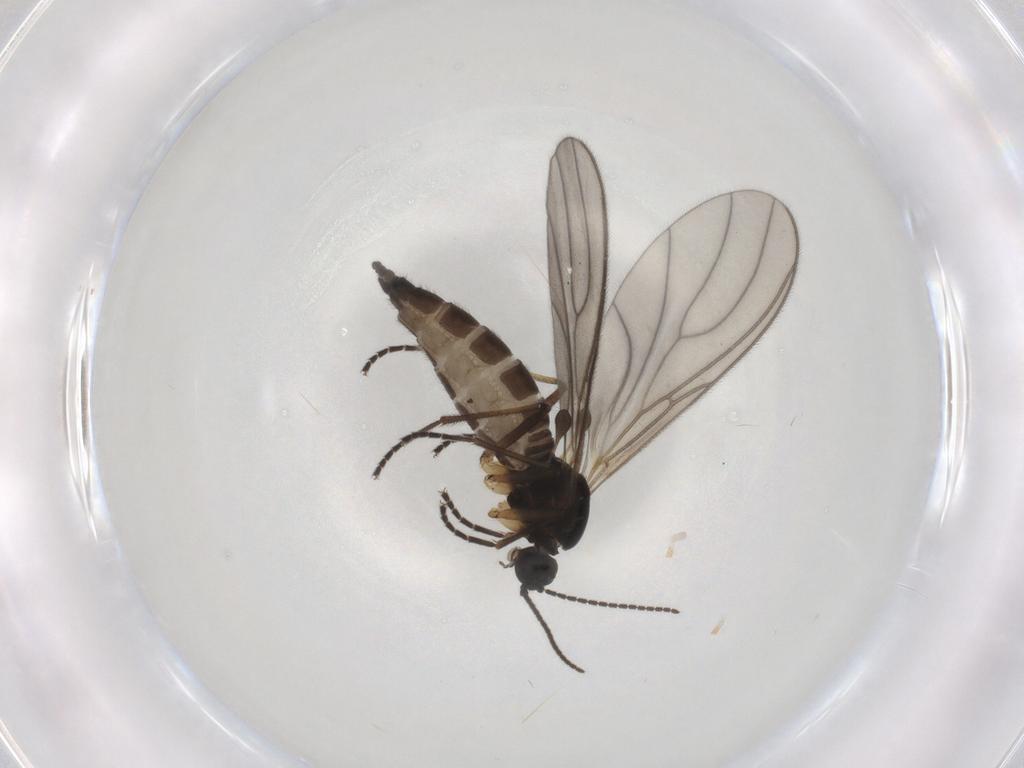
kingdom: Animalia
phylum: Arthropoda
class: Insecta
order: Diptera
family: Sciaridae
